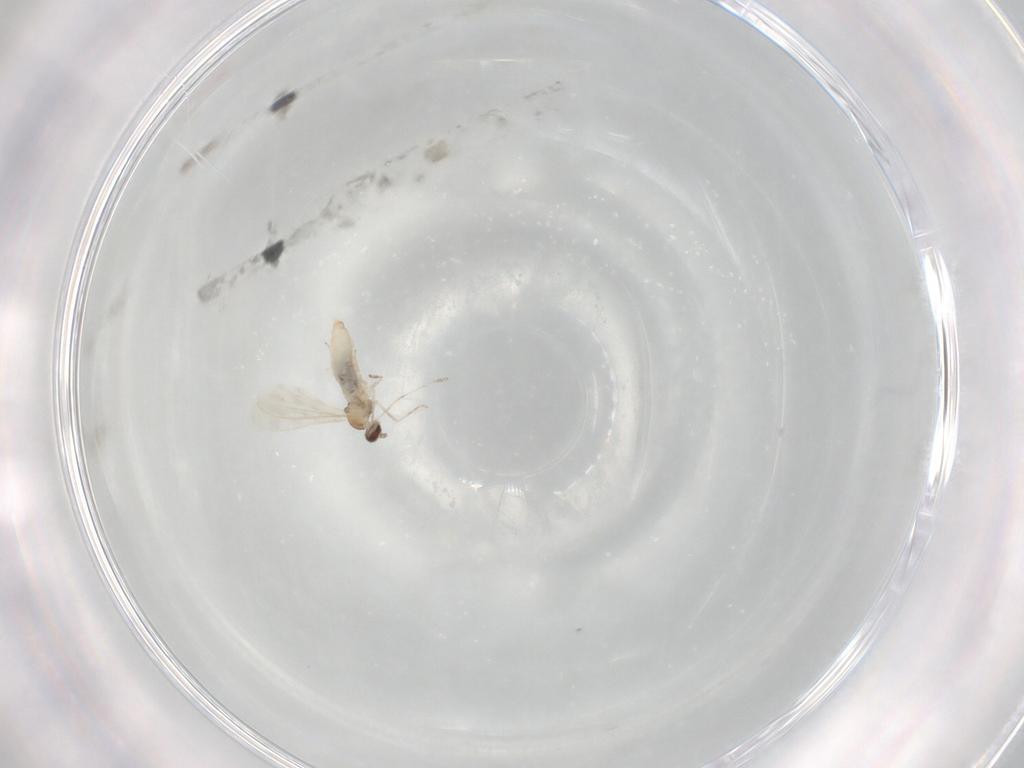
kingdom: Animalia
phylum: Arthropoda
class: Insecta
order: Diptera
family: Cecidomyiidae
